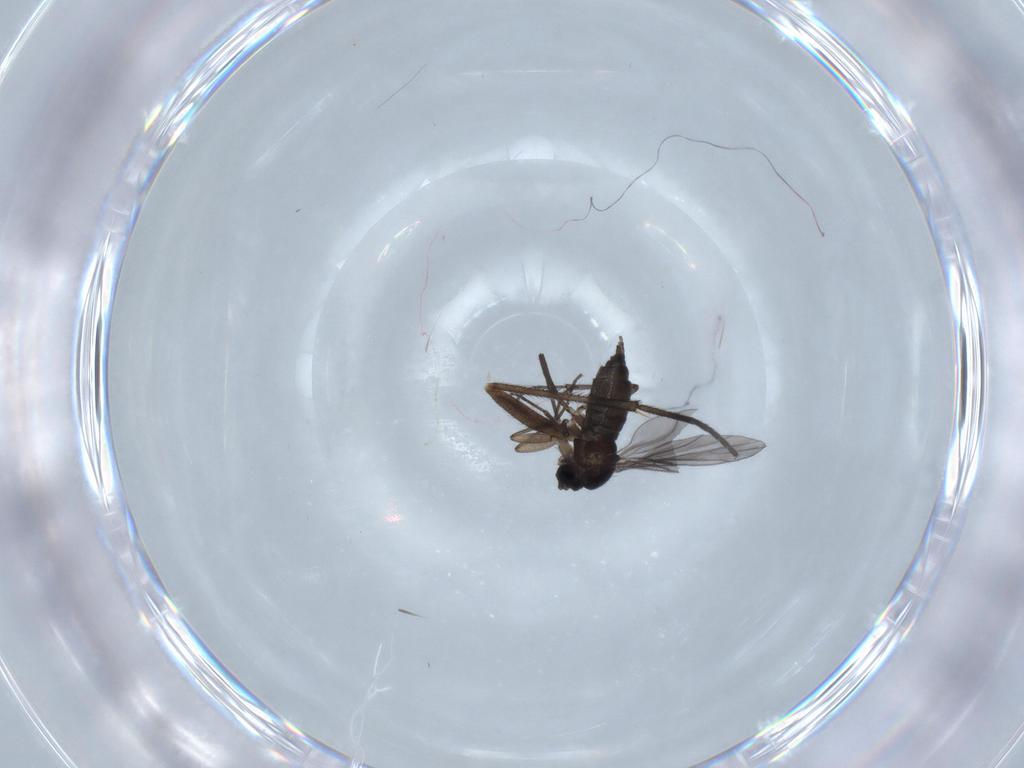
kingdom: Animalia
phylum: Arthropoda
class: Insecta
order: Diptera
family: Sciaridae
